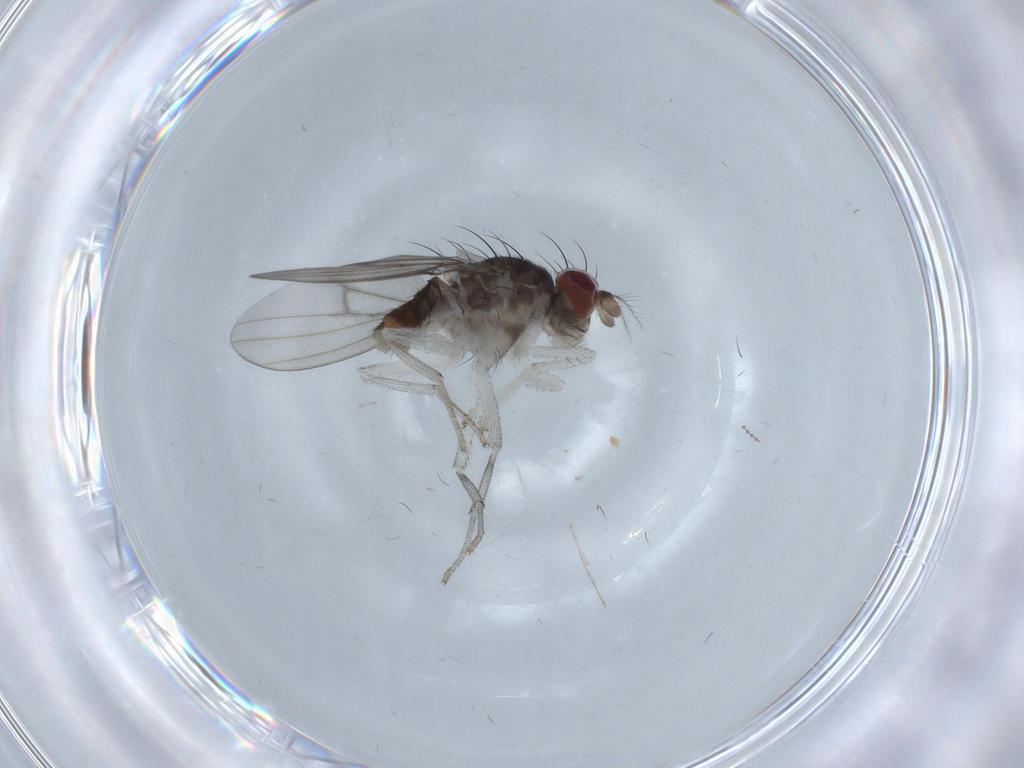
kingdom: Animalia
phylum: Arthropoda
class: Insecta
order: Diptera
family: Lauxaniidae
